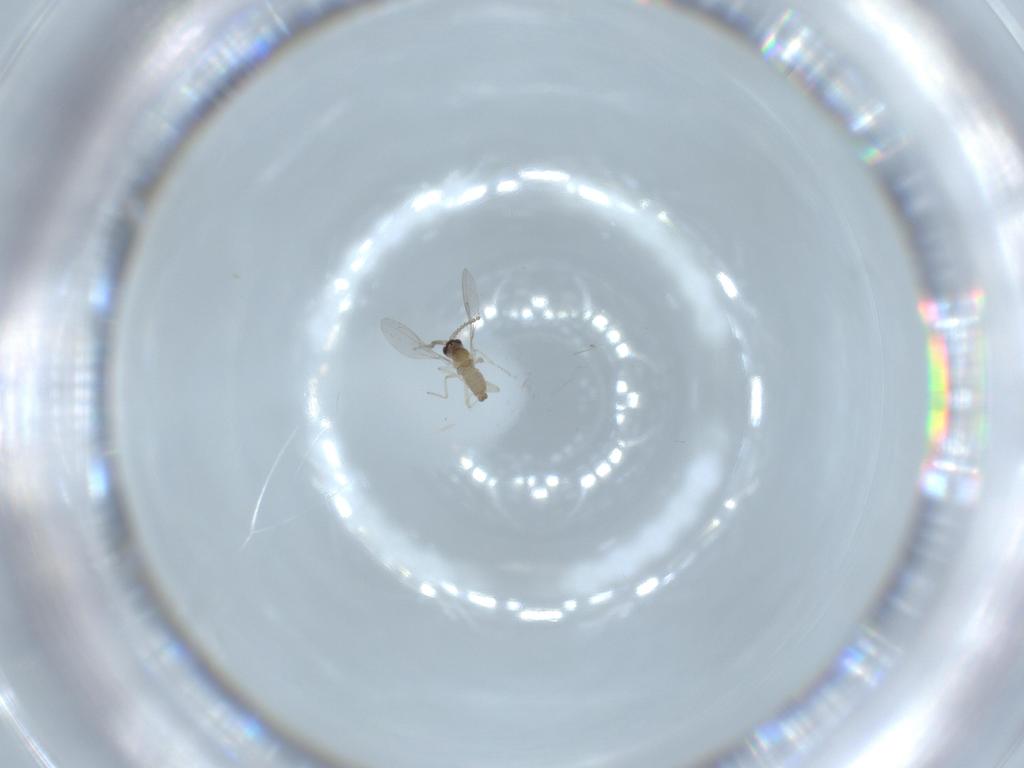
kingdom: Animalia
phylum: Arthropoda
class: Insecta
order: Diptera
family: Cecidomyiidae
